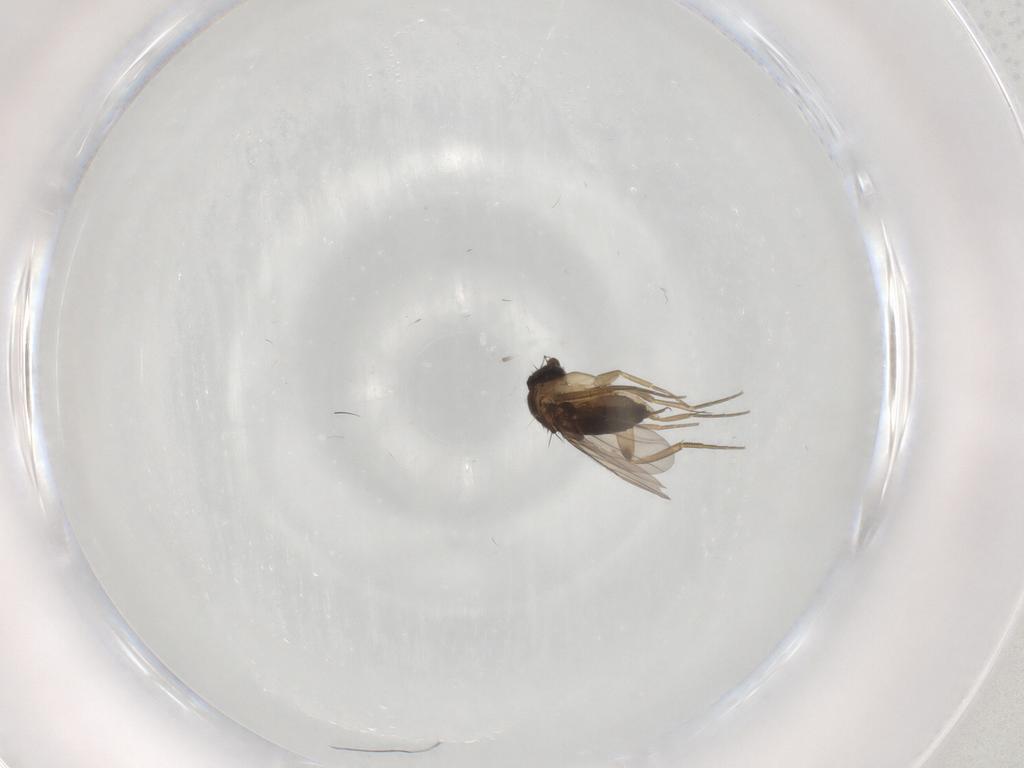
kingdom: Animalia
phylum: Arthropoda
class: Insecta
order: Diptera
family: Phoridae
